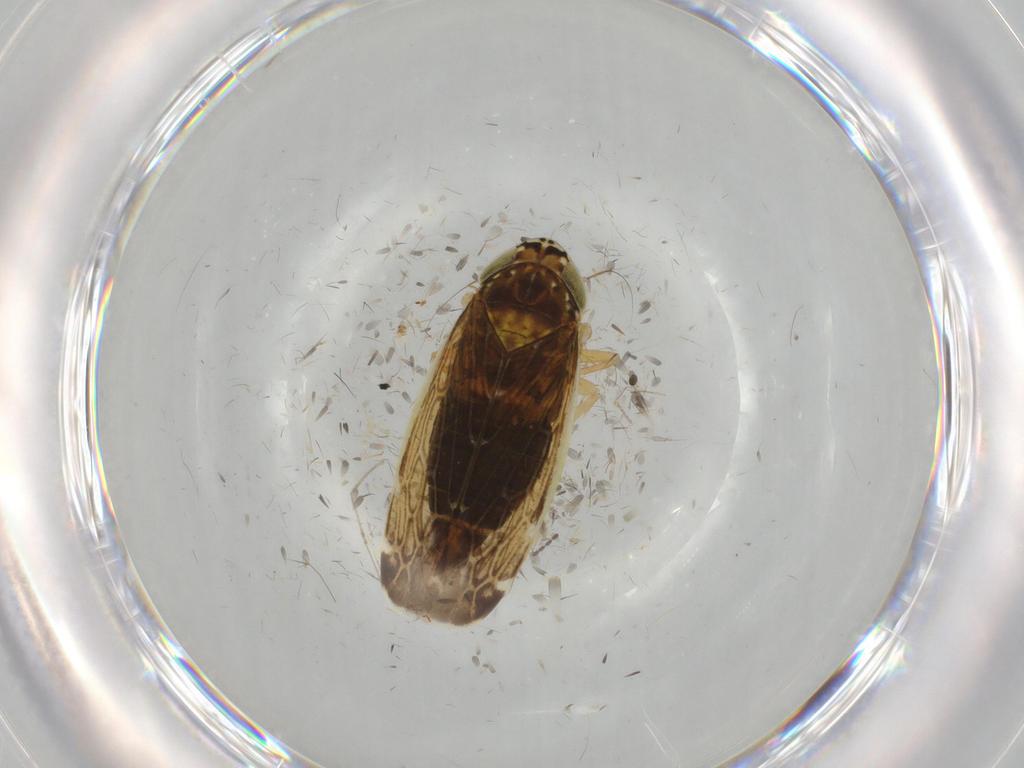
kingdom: Animalia
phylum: Arthropoda
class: Insecta
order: Hemiptera
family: Cicadellidae
